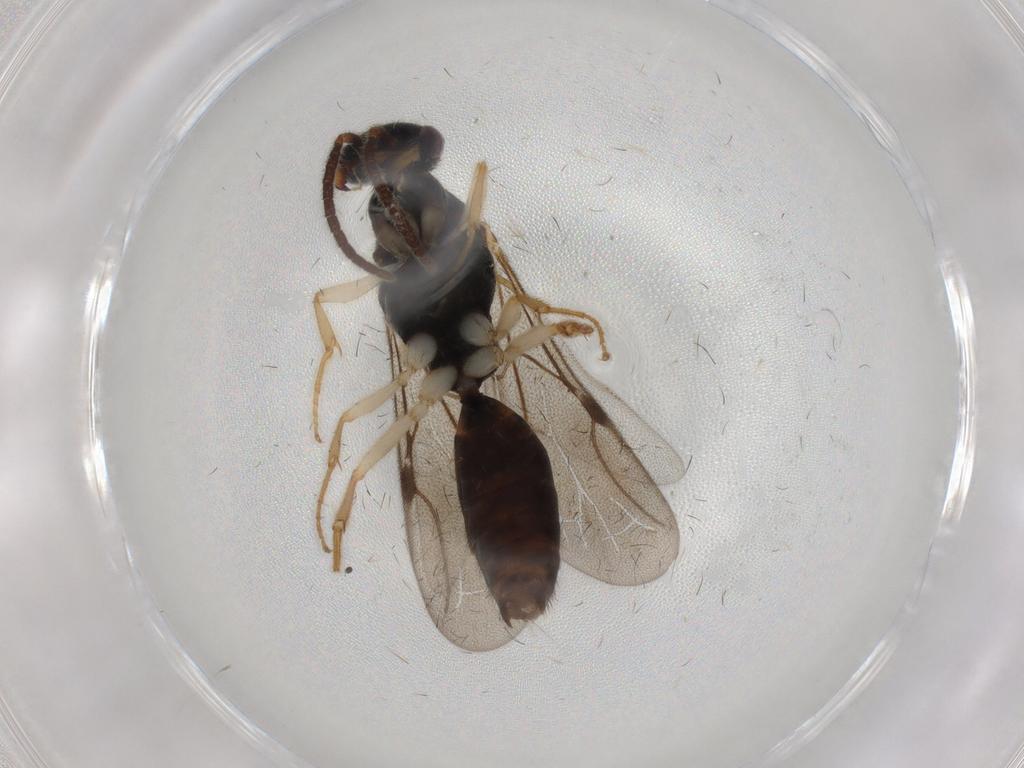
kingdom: Animalia
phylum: Arthropoda
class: Insecta
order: Hymenoptera
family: Bethylidae
